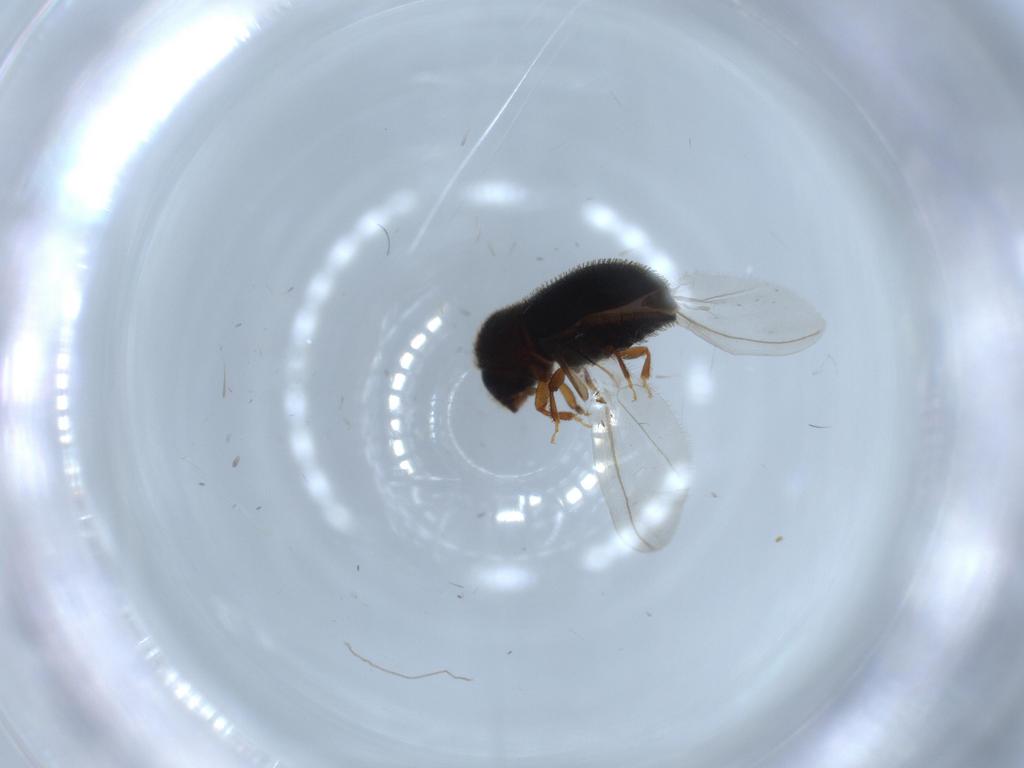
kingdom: Animalia
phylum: Arthropoda
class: Insecta
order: Coleoptera
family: Curculionidae
